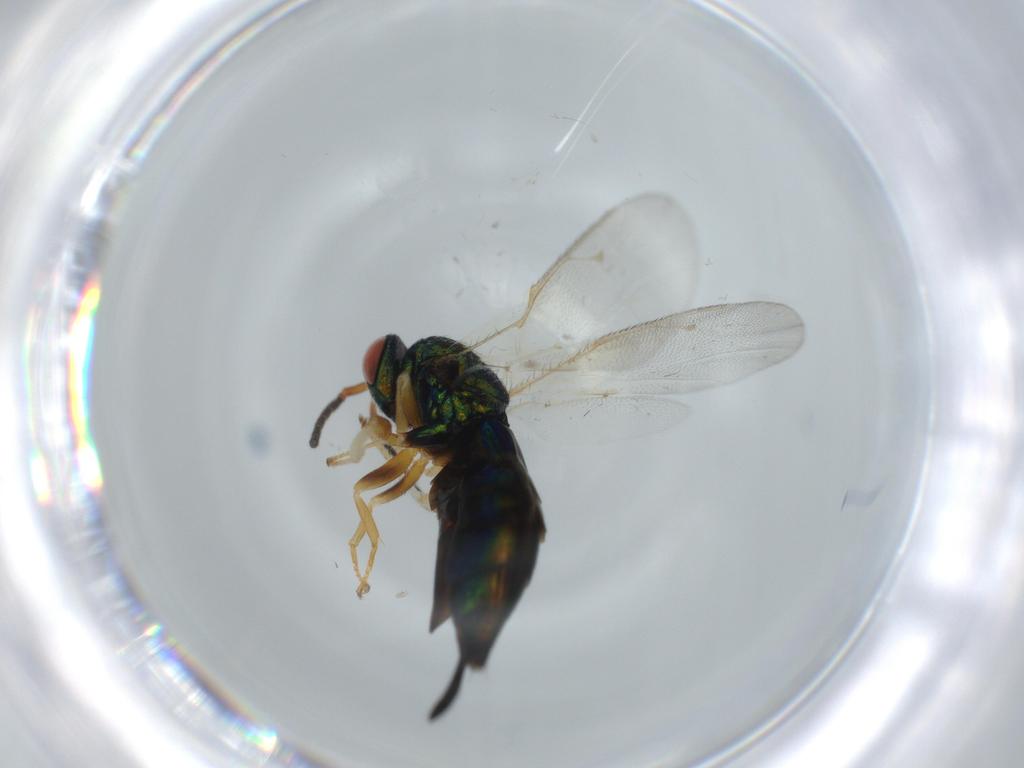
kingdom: Animalia
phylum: Arthropoda
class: Insecta
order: Hymenoptera
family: Pteromalidae
